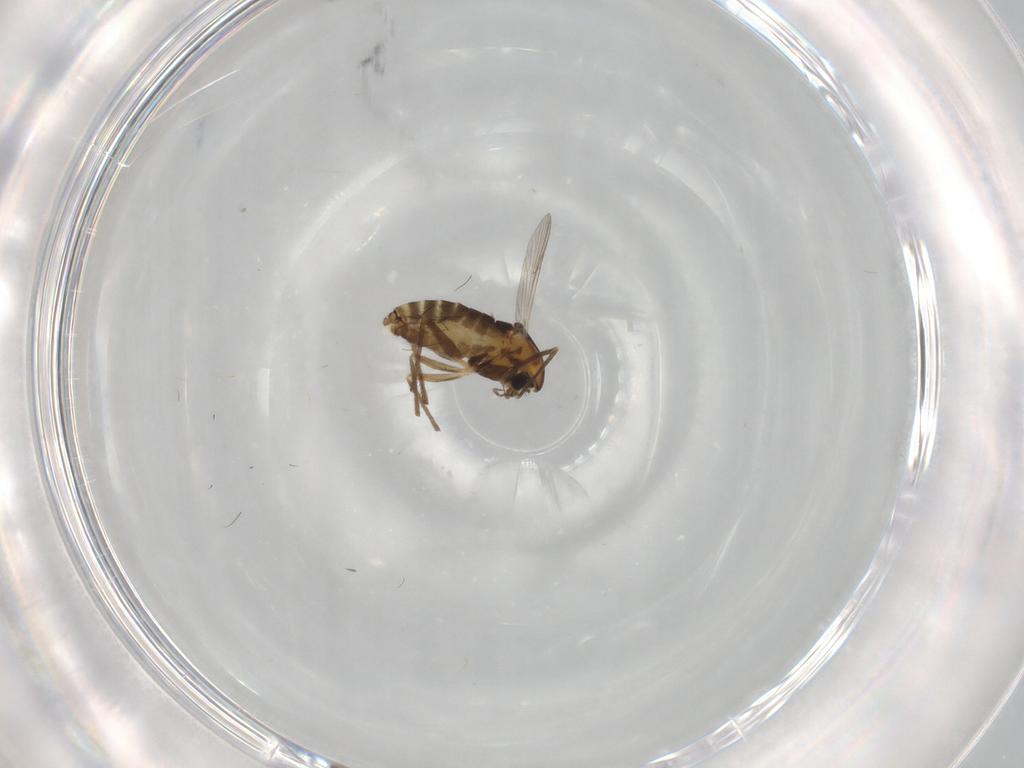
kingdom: Animalia
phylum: Arthropoda
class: Insecta
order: Diptera
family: Chironomidae
